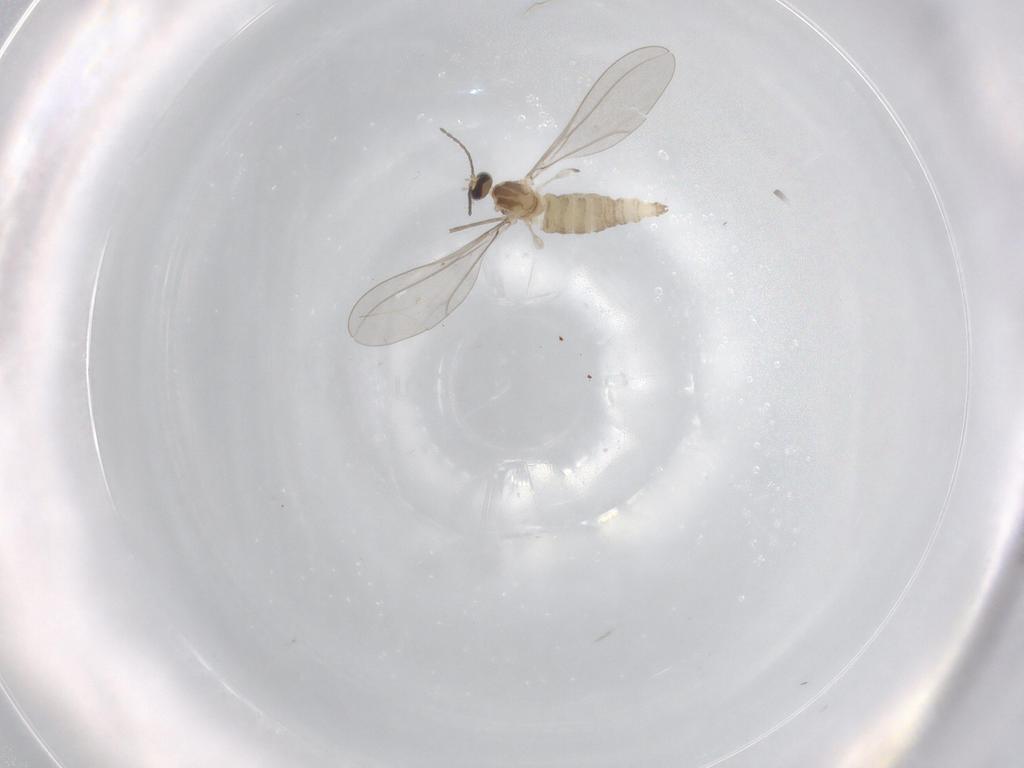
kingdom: Animalia
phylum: Arthropoda
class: Insecta
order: Diptera
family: Cecidomyiidae
